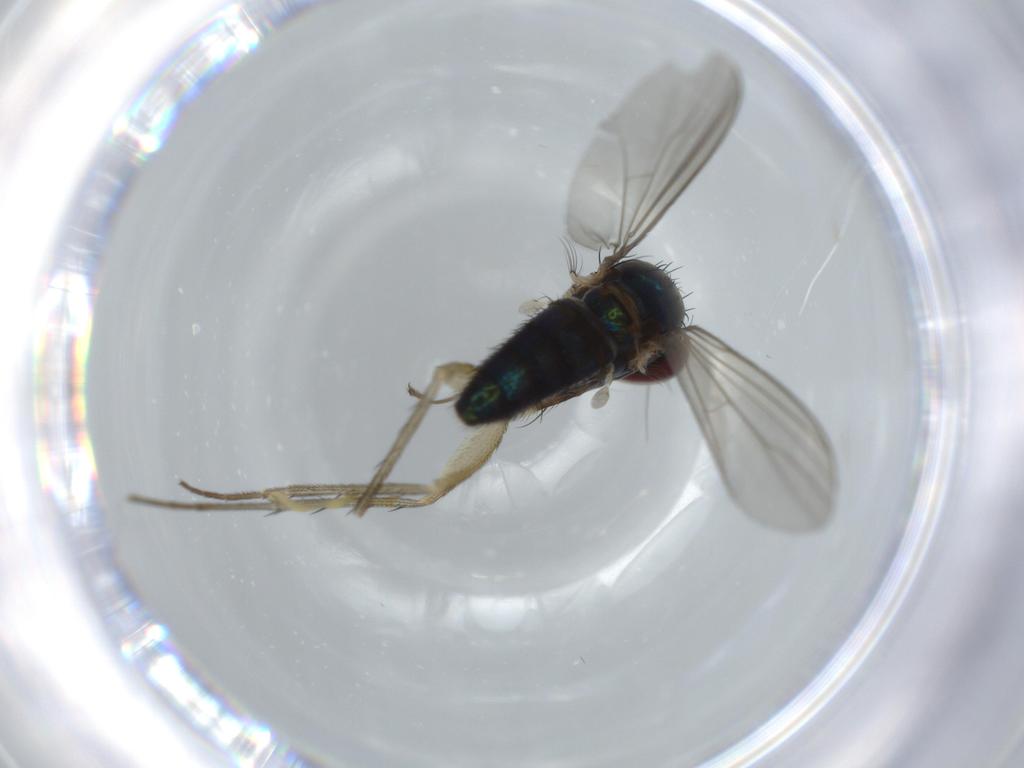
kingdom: Animalia
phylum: Arthropoda
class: Insecta
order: Diptera
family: Dolichopodidae
